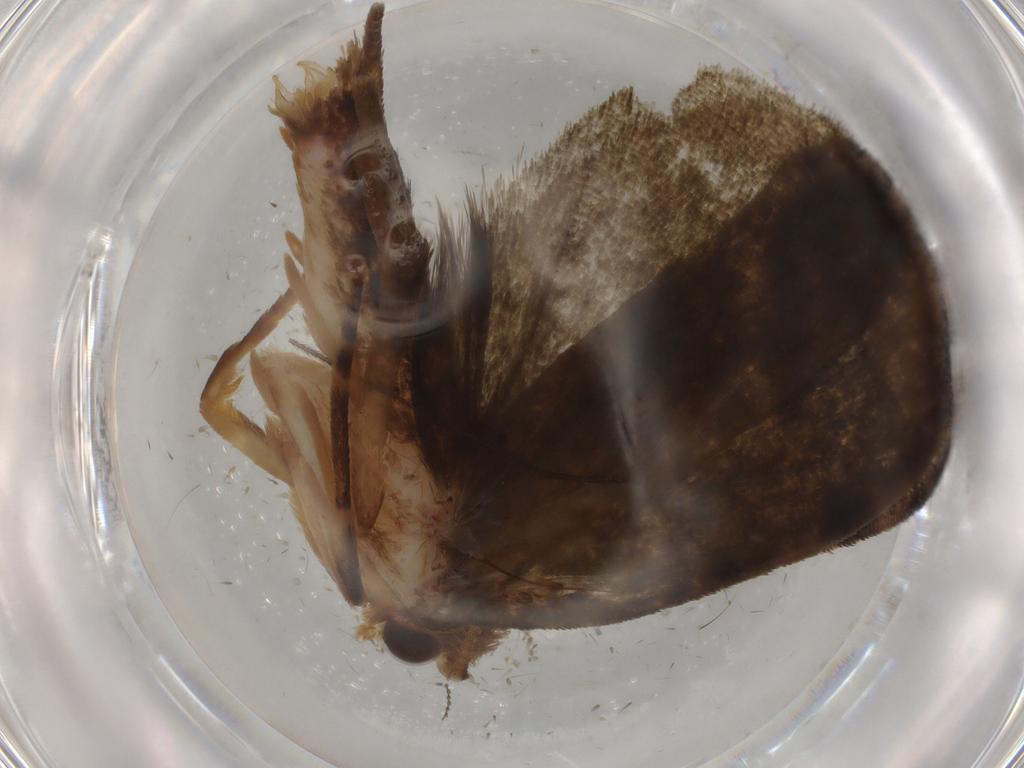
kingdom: Animalia
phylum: Arthropoda
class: Insecta
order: Lepidoptera
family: Geometridae
